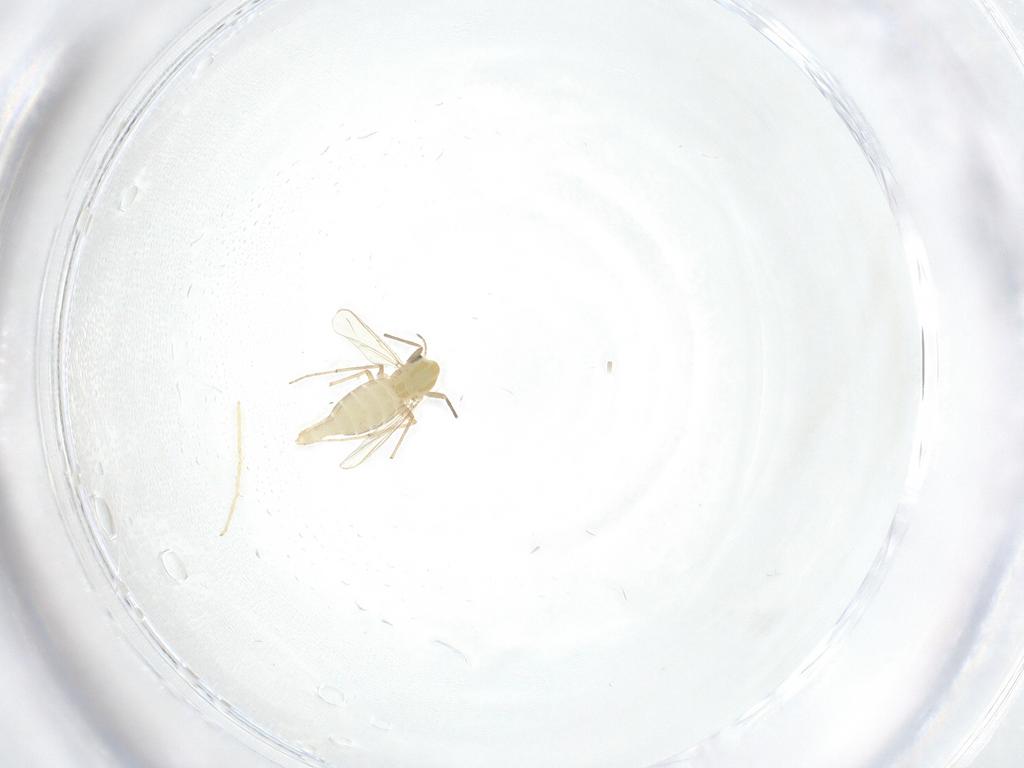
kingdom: Animalia
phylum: Arthropoda
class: Insecta
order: Diptera
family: Chironomidae
